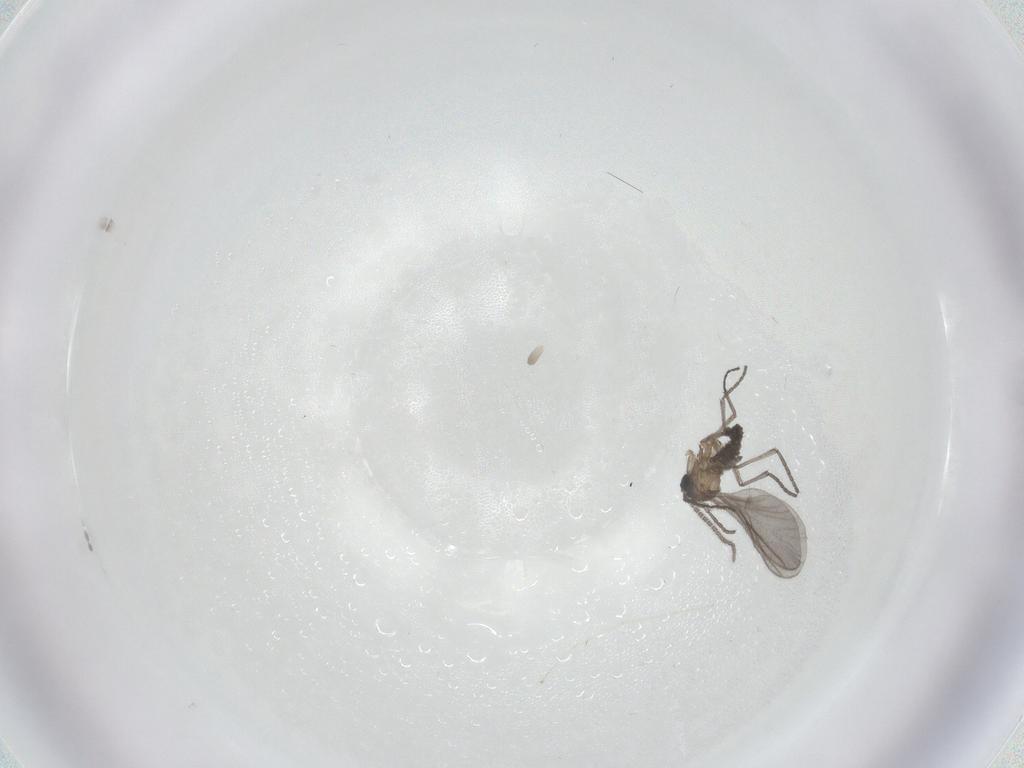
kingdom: Animalia
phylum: Arthropoda
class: Insecta
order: Diptera
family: Sciaridae
